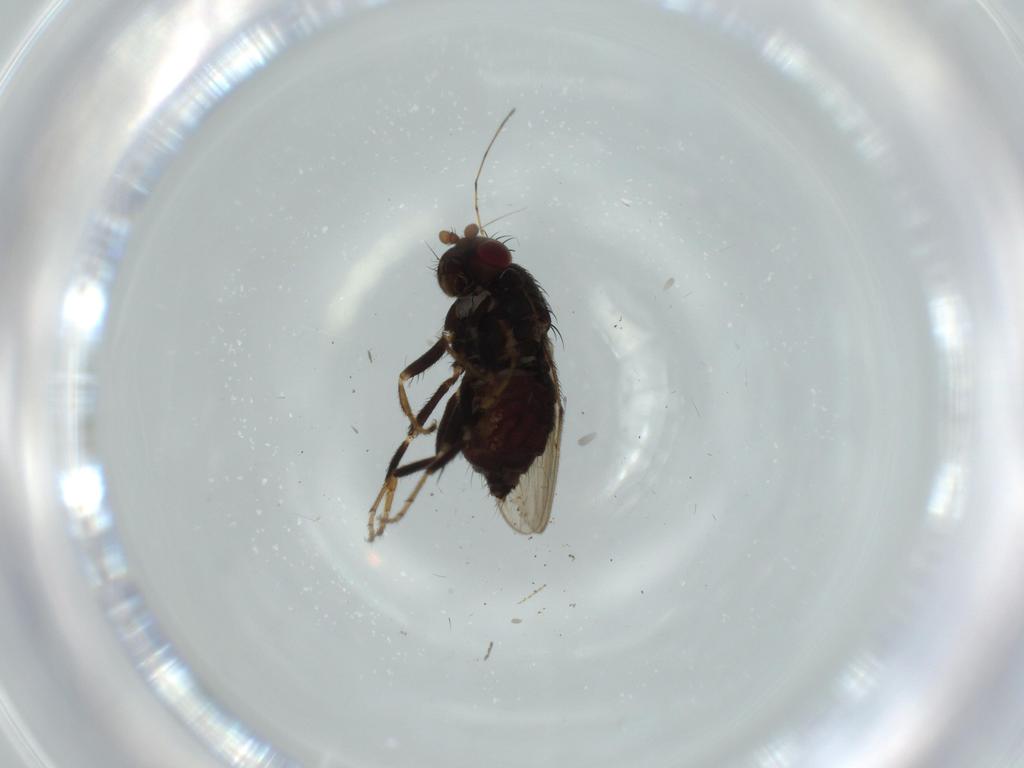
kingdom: Animalia
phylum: Arthropoda
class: Insecta
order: Diptera
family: Sphaeroceridae
